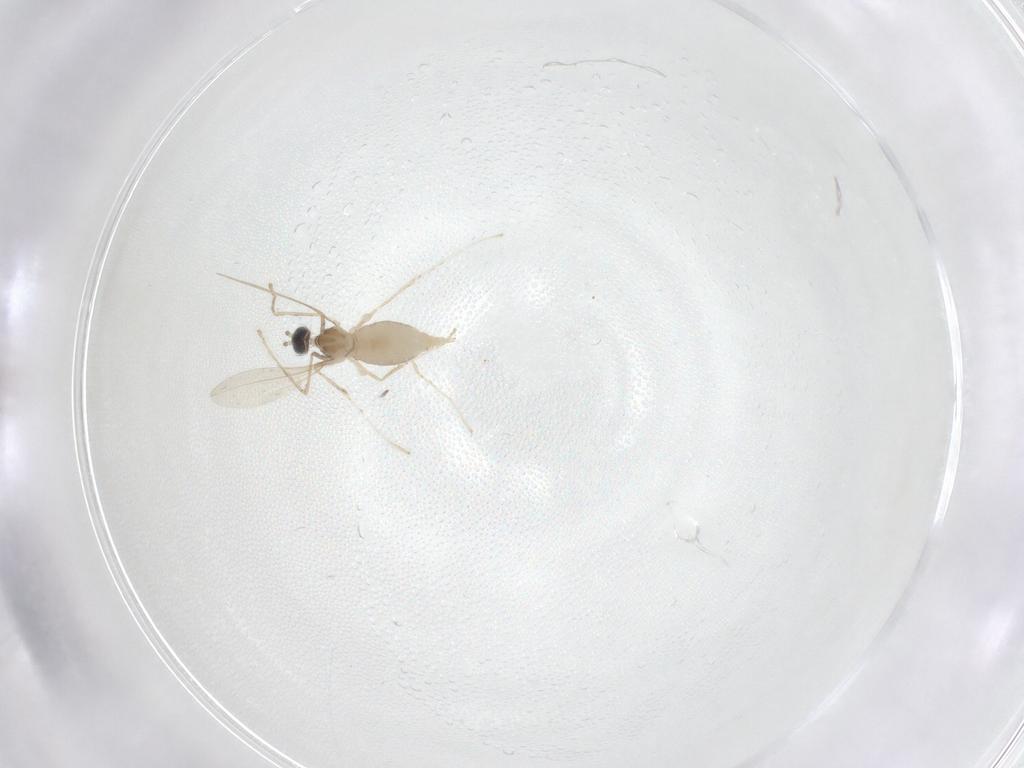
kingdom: Animalia
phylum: Arthropoda
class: Insecta
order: Diptera
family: Cecidomyiidae
